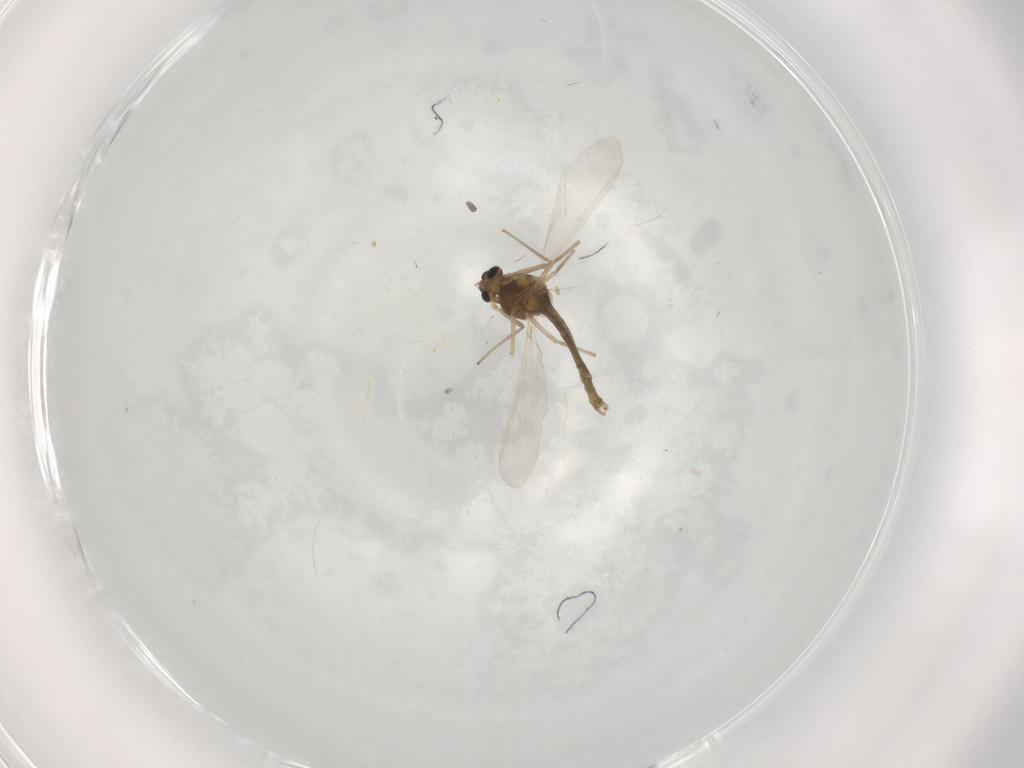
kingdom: Animalia
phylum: Arthropoda
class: Insecta
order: Diptera
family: Chironomidae
